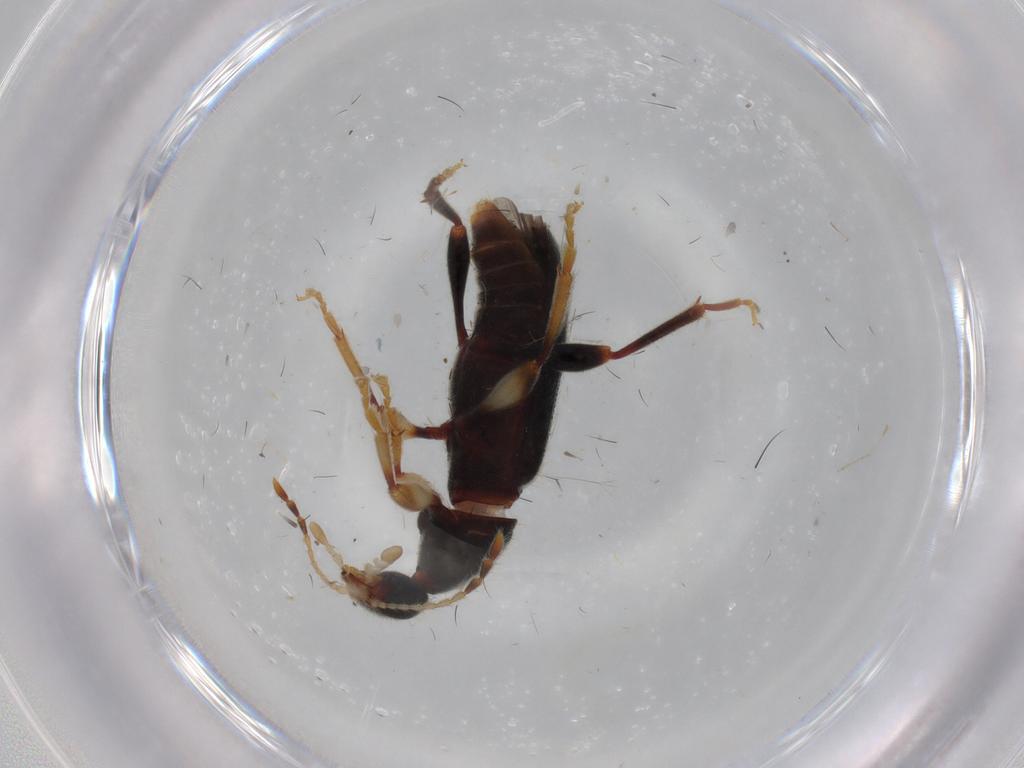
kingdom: Animalia
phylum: Arthropoda
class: Insecta
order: Coleoptera
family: Anthicidae
